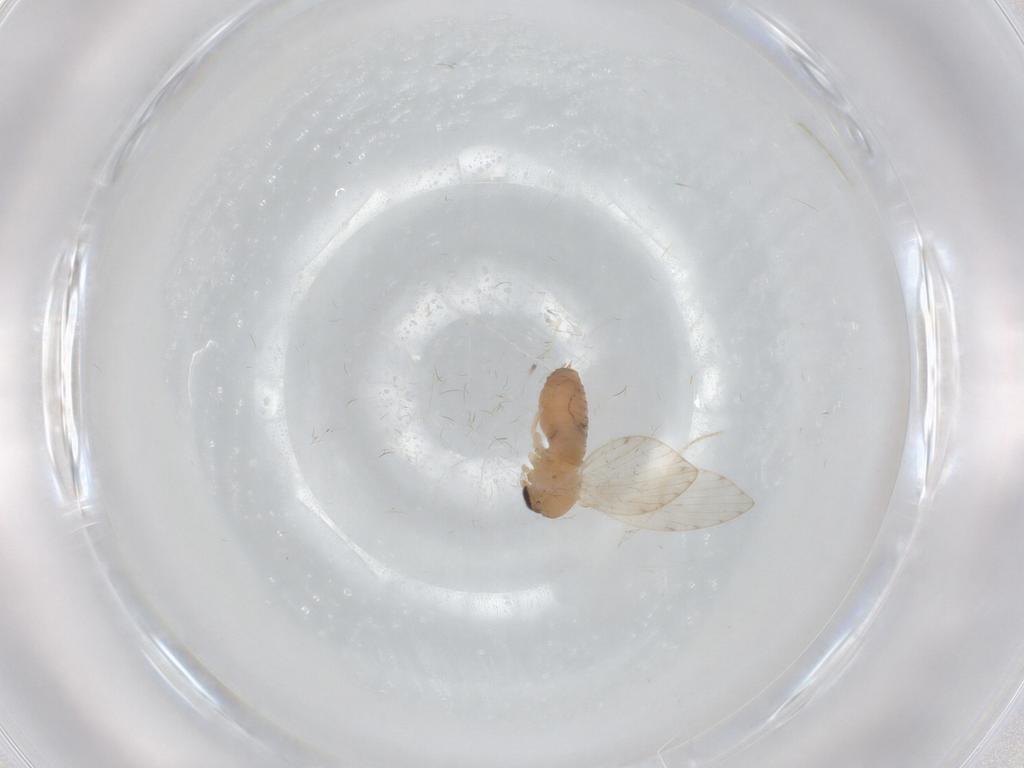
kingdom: Animalia
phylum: Arthropoda
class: Insecta
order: Diptera
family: Psychodidae
